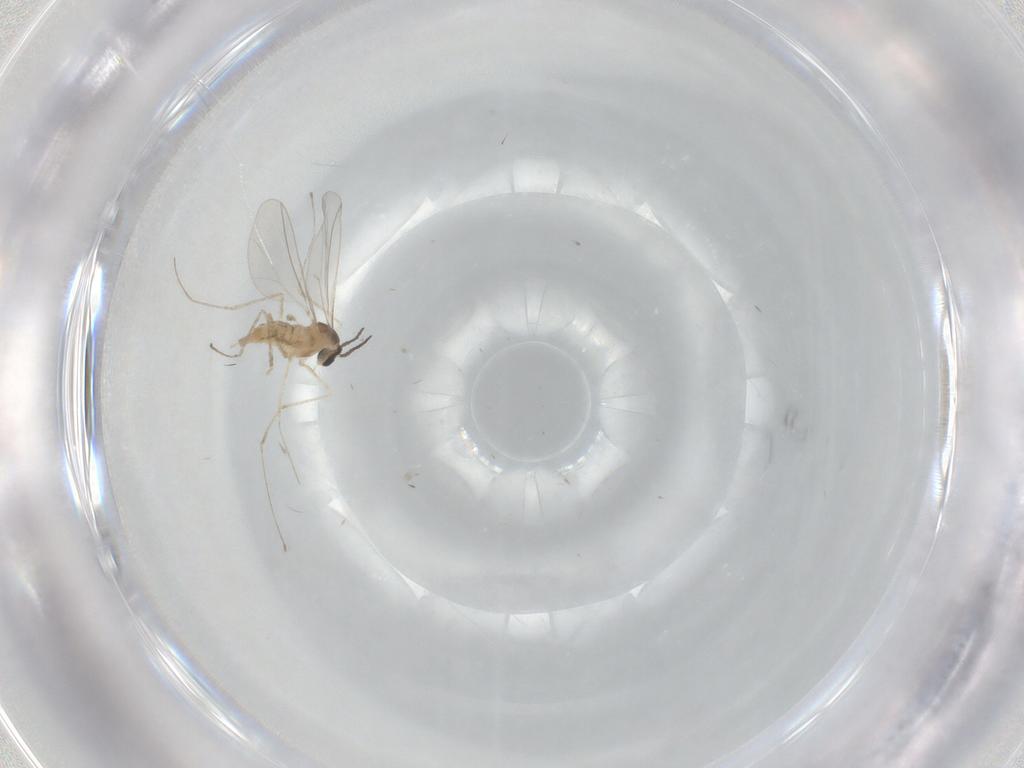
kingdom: Animalia
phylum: Arthropoda
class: Insecta
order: Diptera
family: Cecidomyiidae
